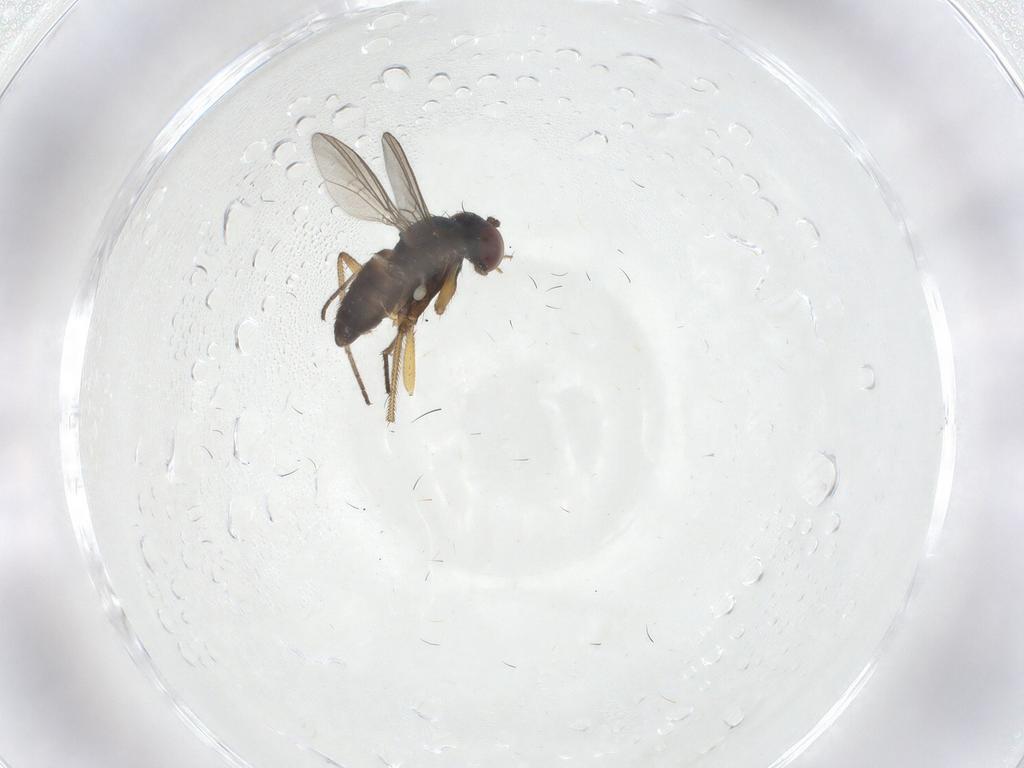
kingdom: Animalia
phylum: Arthropoda
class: Insecta
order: Diptera
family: Dolichopodidae
